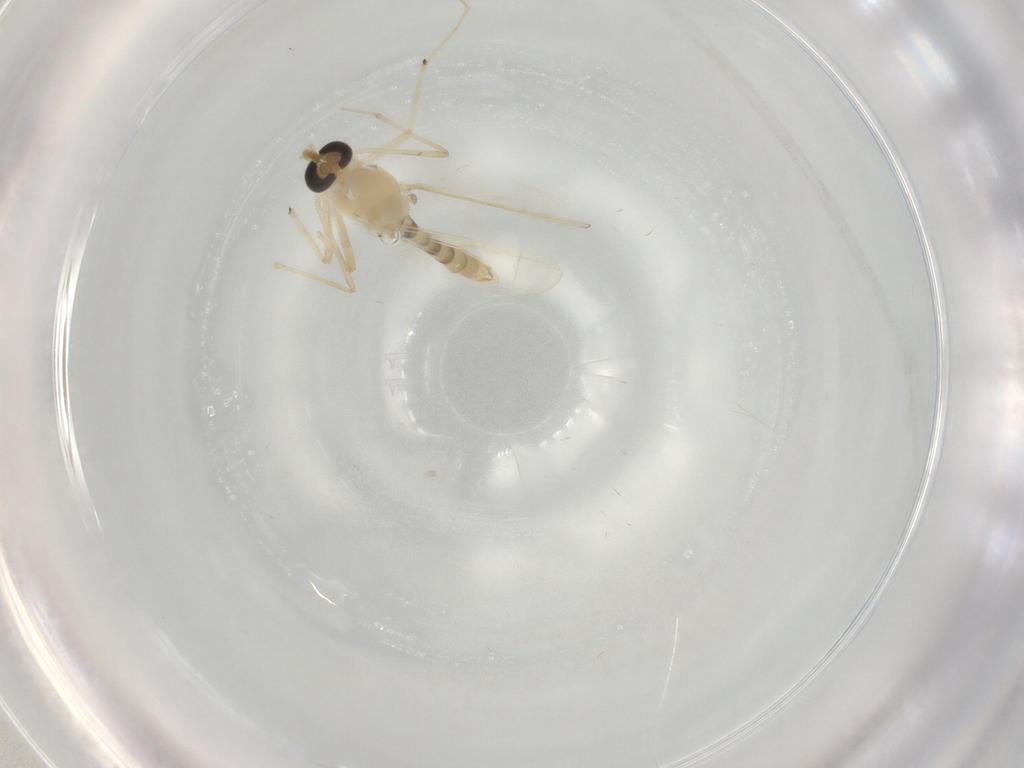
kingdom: Animalia
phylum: Arthropoda
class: Insecta
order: Diptera
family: Chironomidae
